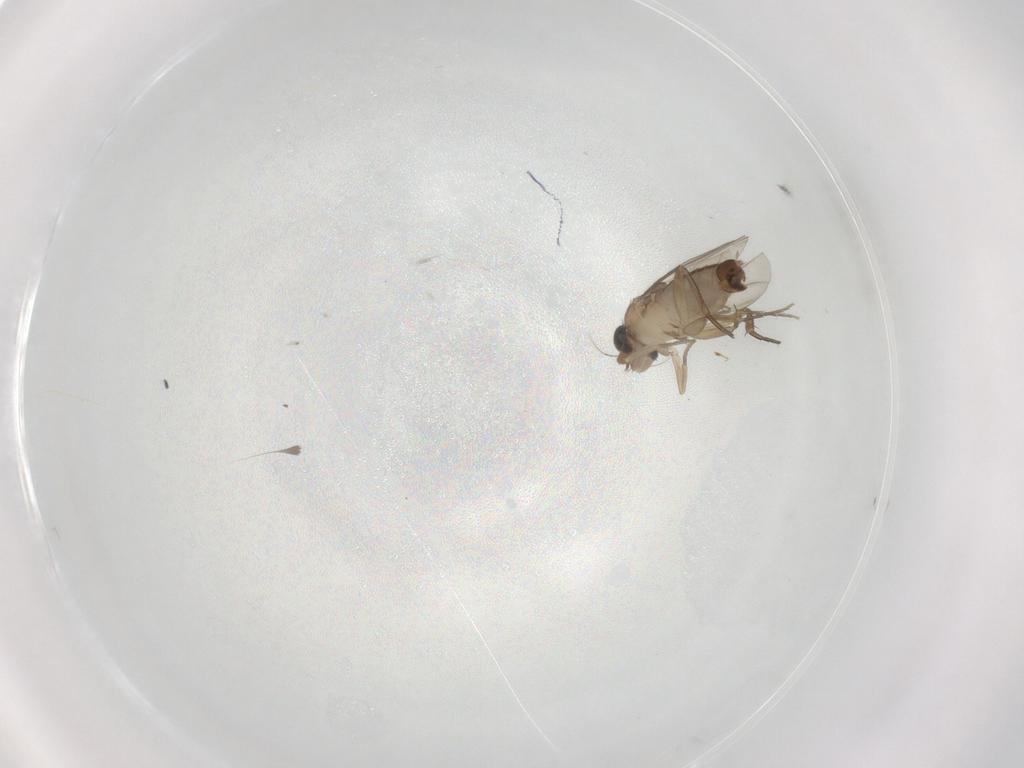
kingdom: Animalia
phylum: Arthropoda
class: Insecta
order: Diptera
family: Phoridae
